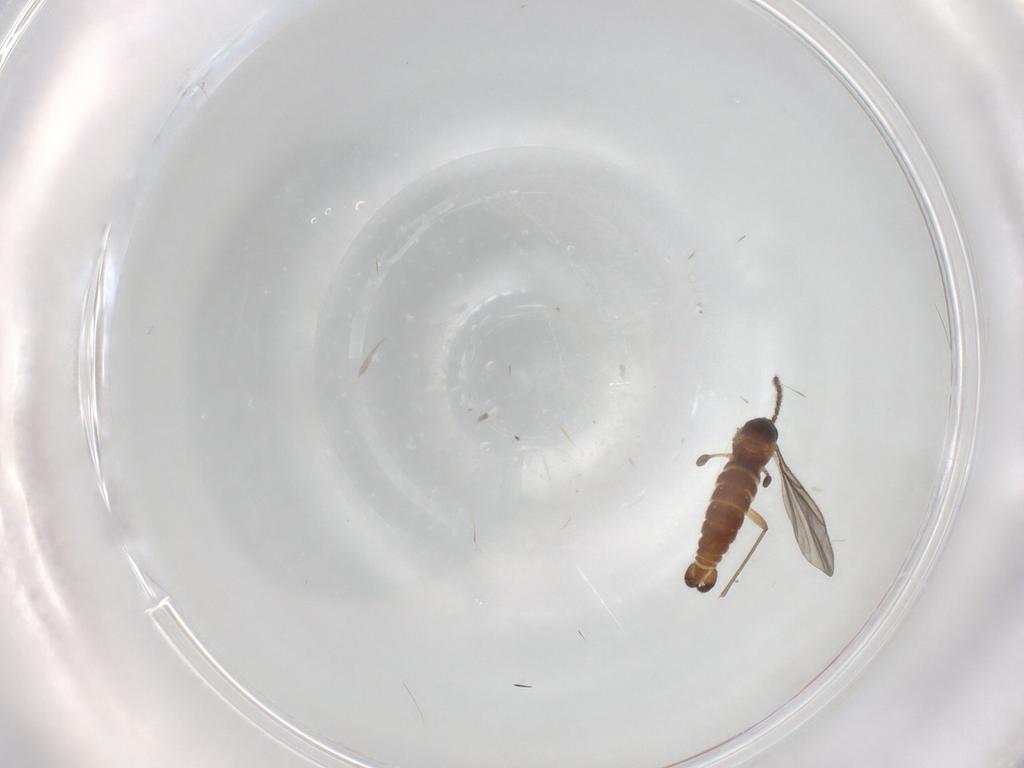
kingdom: Animalia
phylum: Arthropoda
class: Insecta
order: Diptera
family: Sciaridae
